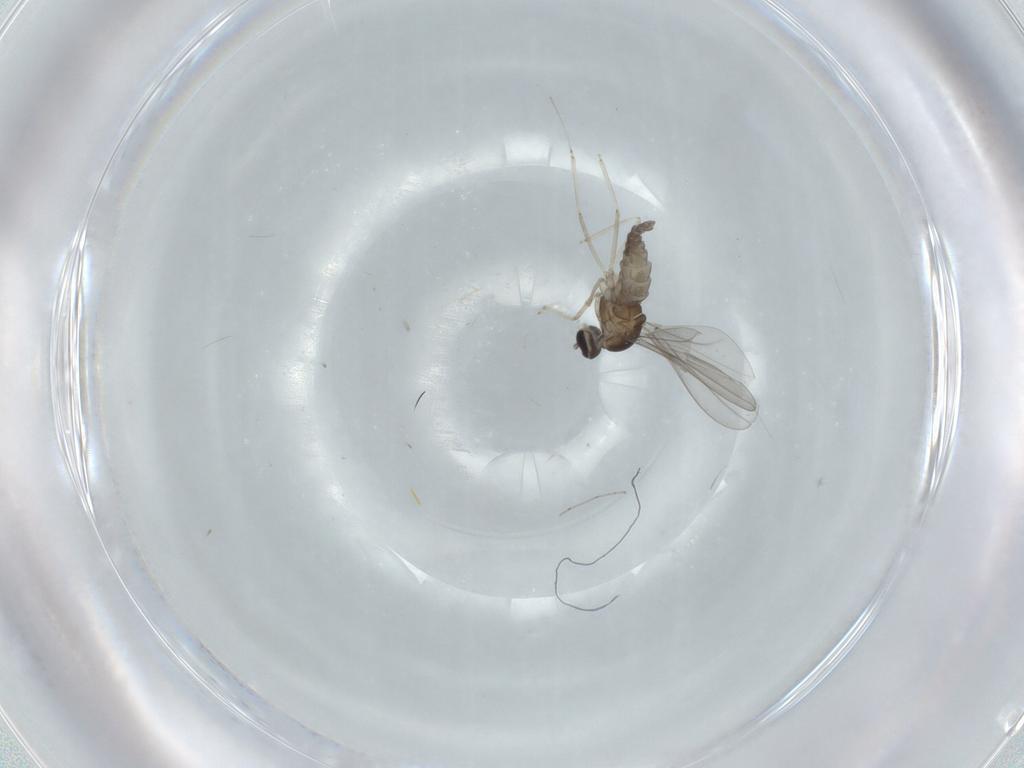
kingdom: Animalia
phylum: Arthropoda
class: Insecta
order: Diptera
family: Cecidomyiidae
